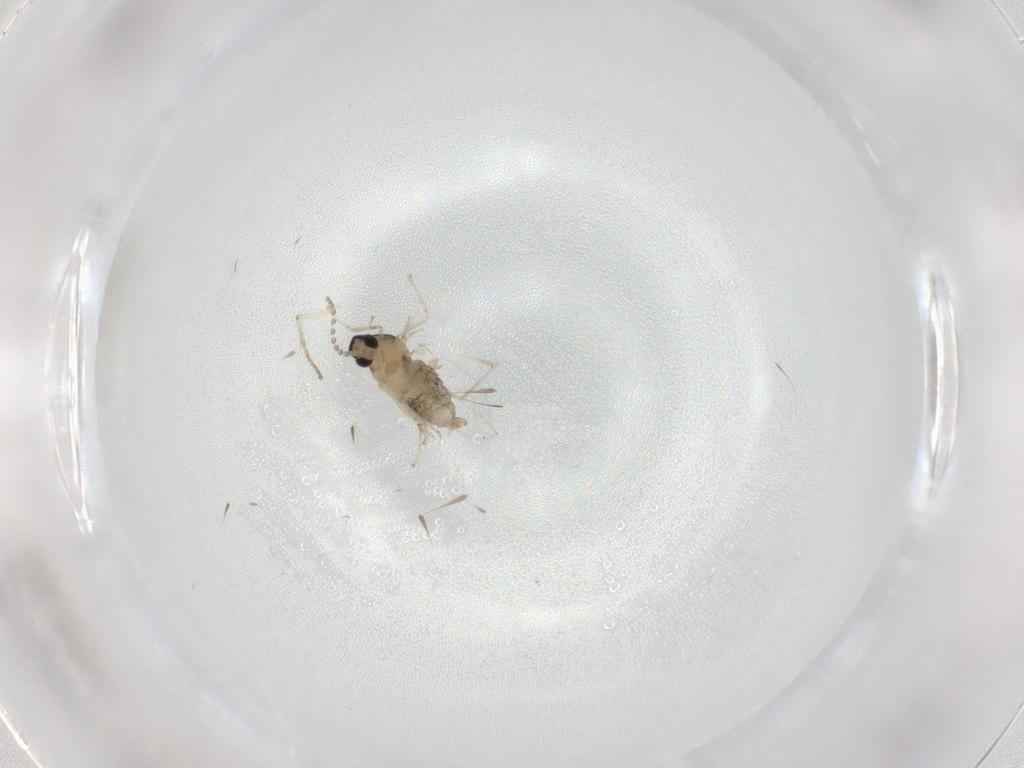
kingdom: Animalia
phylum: Arthropoda
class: Insecta
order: Diptera
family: Cecidomyiidae
